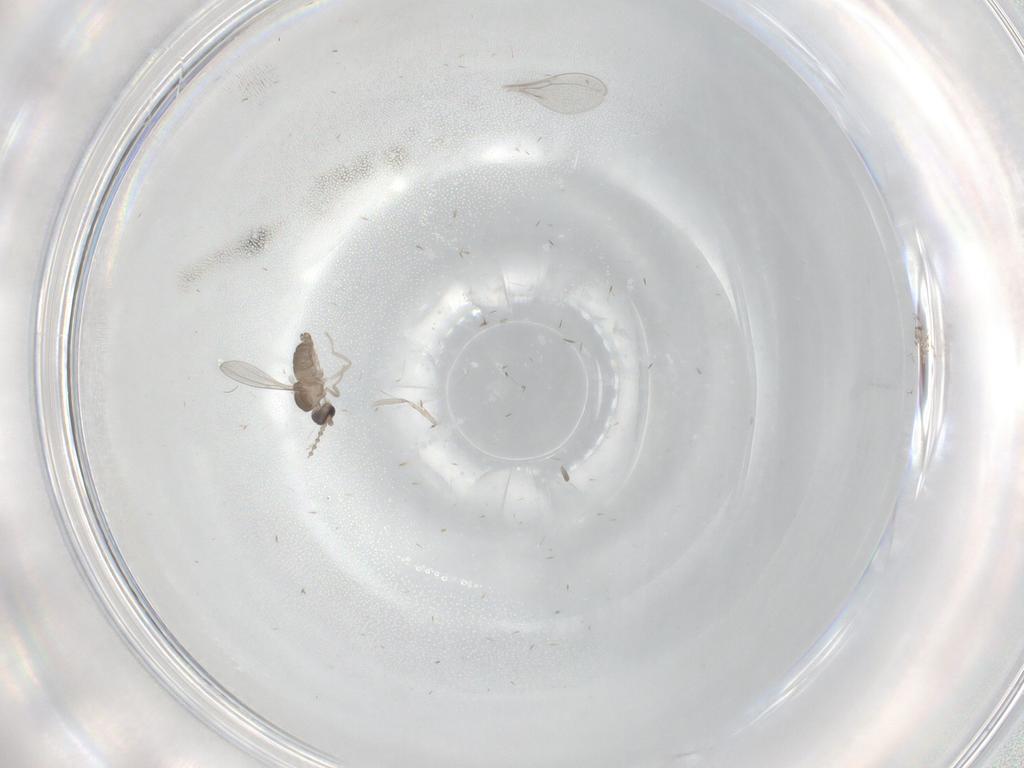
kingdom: Animalia
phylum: Arthropoda
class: Insecta
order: Diptera
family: Cecidomyiidae
